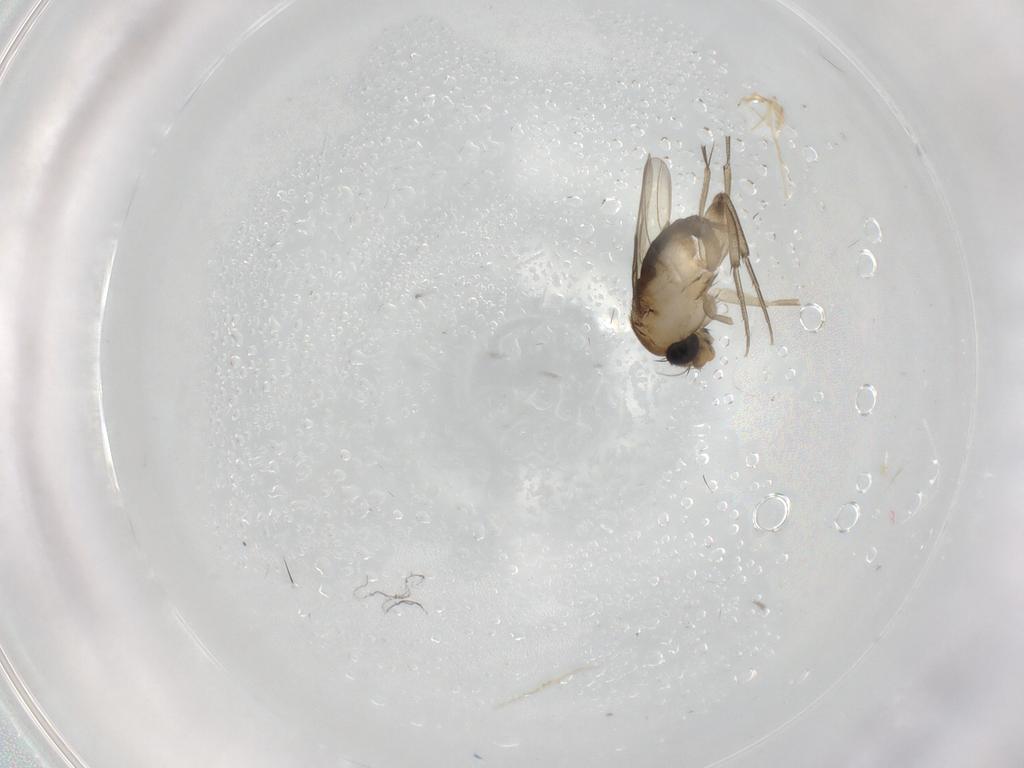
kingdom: Animalia
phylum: Arthropoda
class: Insecta
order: Diptera
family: Phoridae
